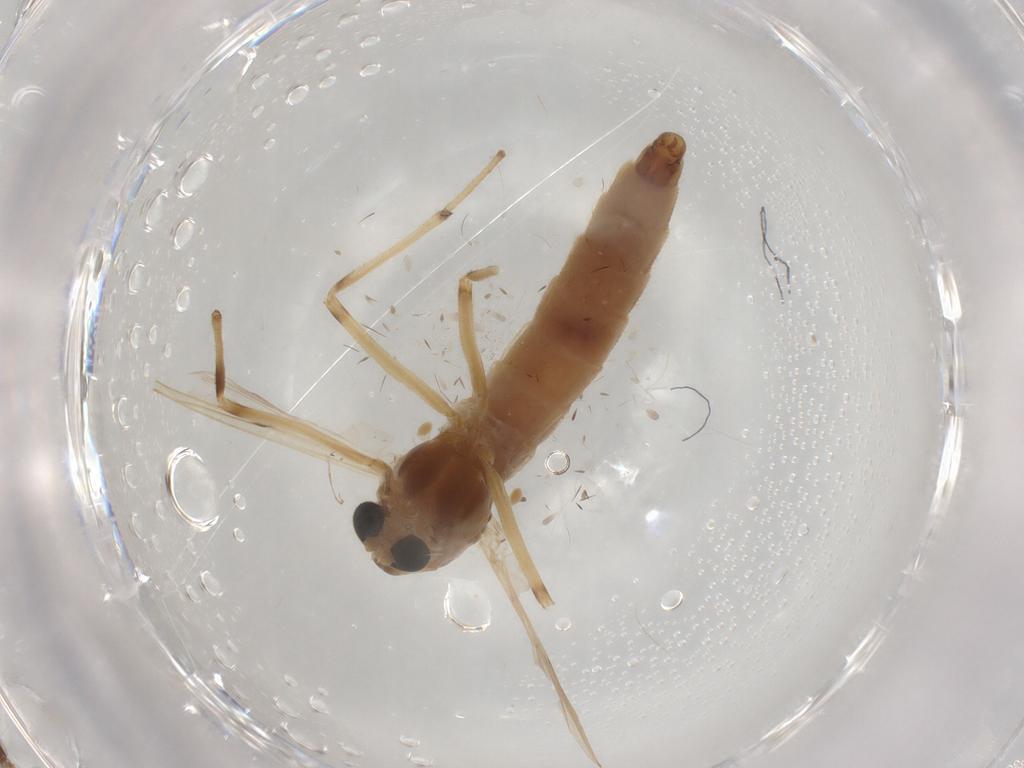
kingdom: Animalia
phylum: Arthropoda
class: Insecta
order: Diptera
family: Chironomidae
